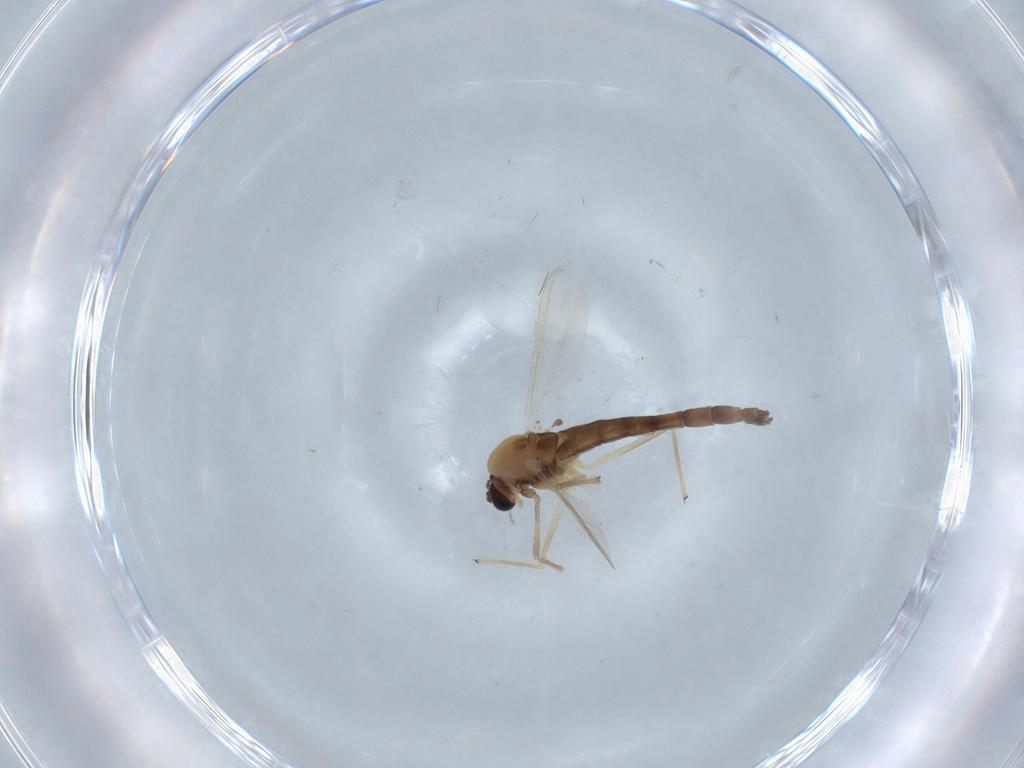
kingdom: Animalia
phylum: Arthropoda
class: Insecta
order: Diptera
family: Chironomidae
